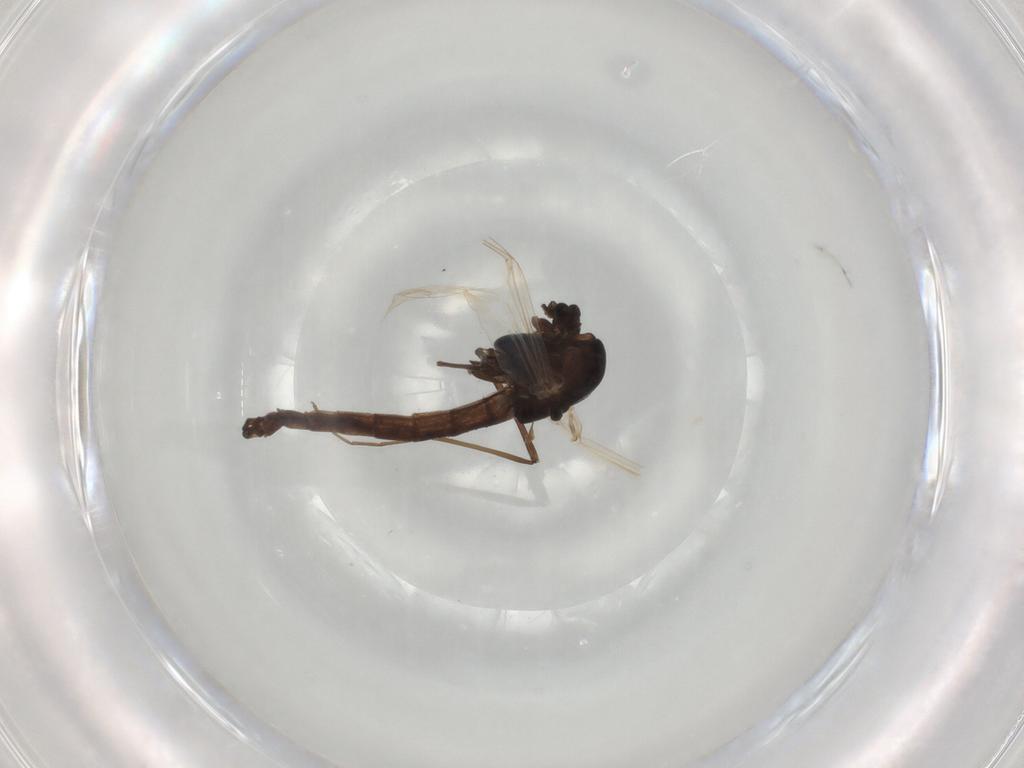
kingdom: Animalia
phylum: Arthropoda
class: Insecta
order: Diptera
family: Chironomidae
